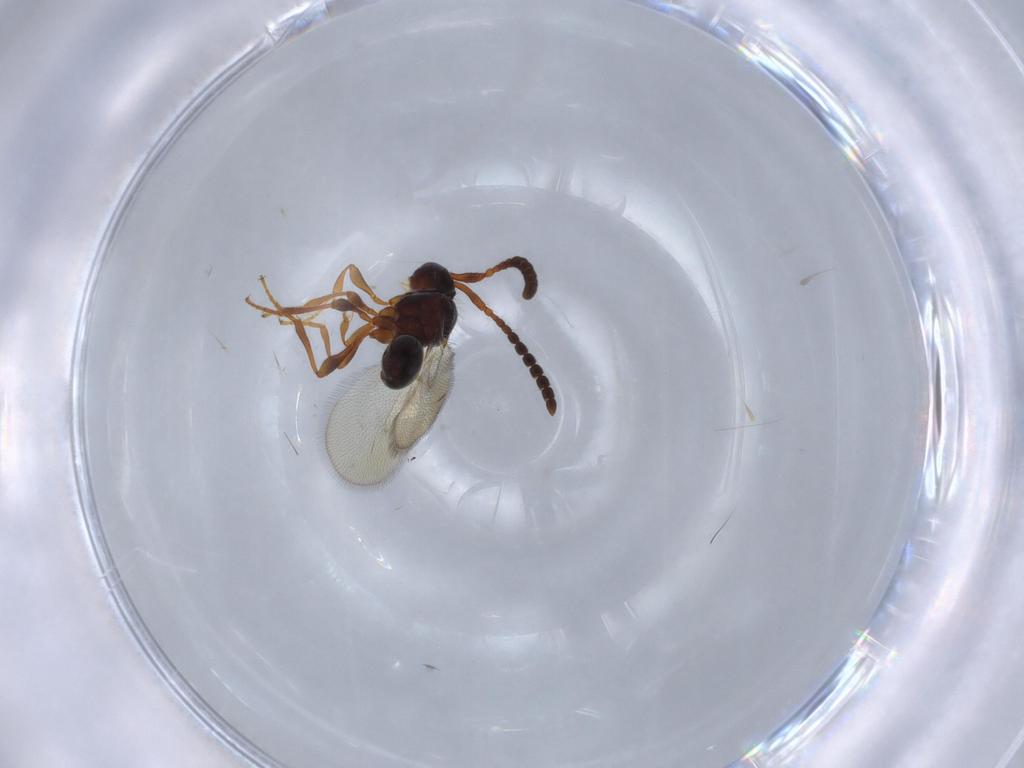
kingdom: Animalia
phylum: Arthropoda
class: Insecta
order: Hymenoptera
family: Diapriidae
